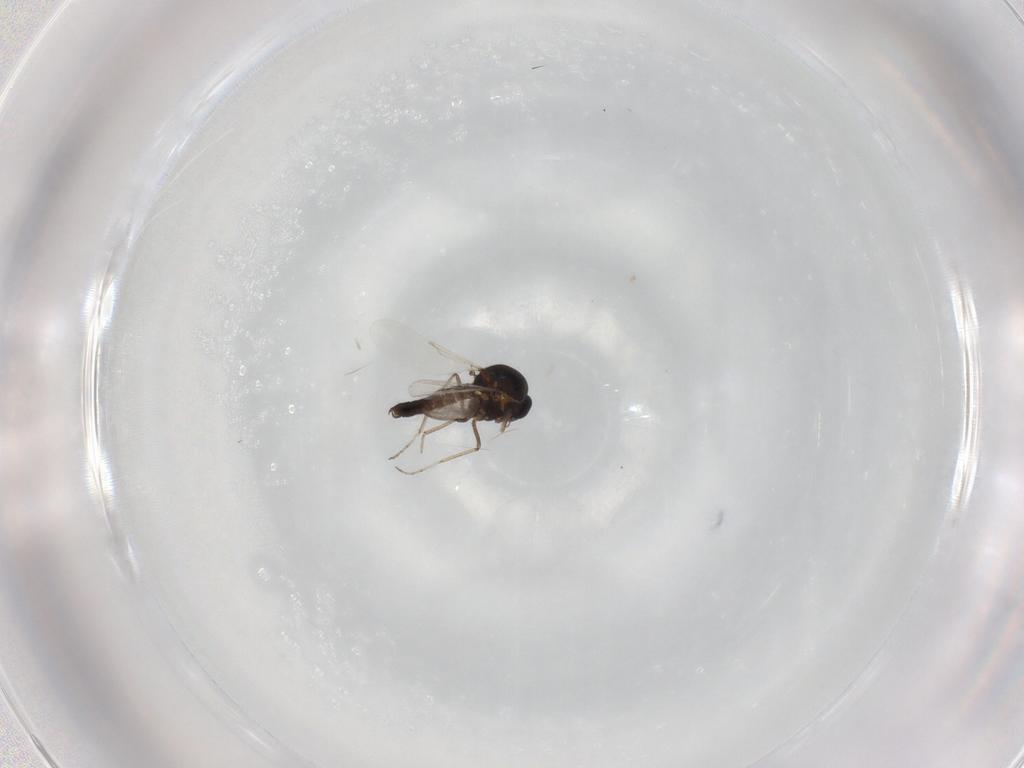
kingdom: Animalia
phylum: Arthropoda
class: Insecta
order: Diptera
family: Ceratopogonidae
